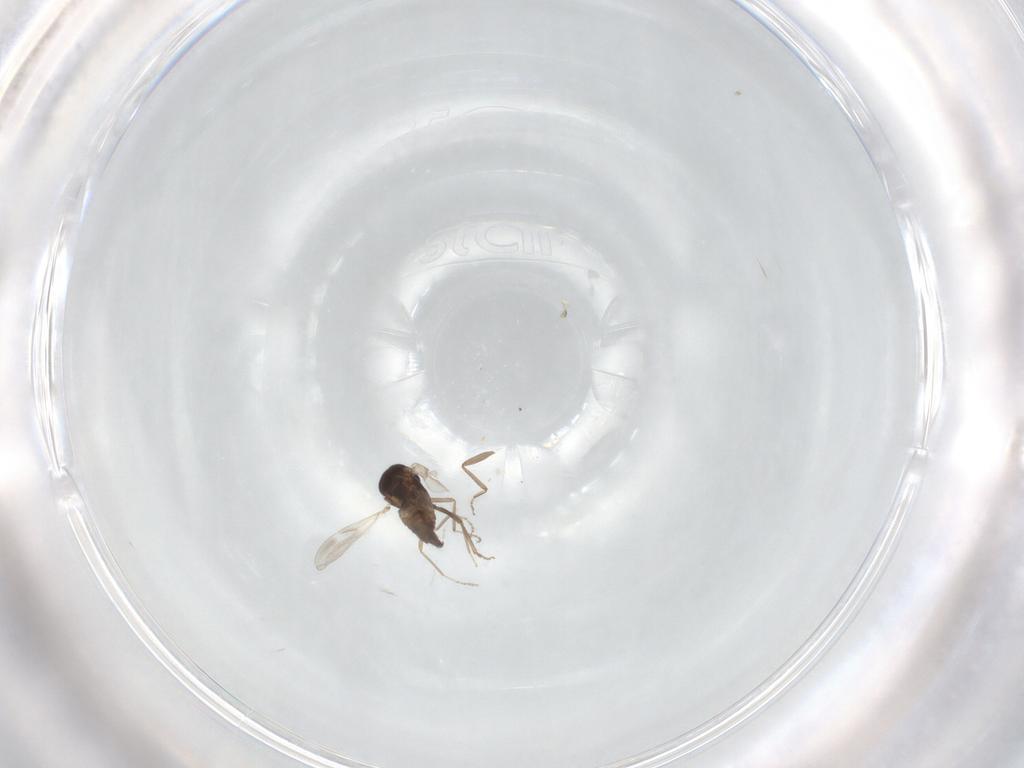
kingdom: Animalia
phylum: Arthropoda
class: Insecta
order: Diptera
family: Ceratopogonidae
